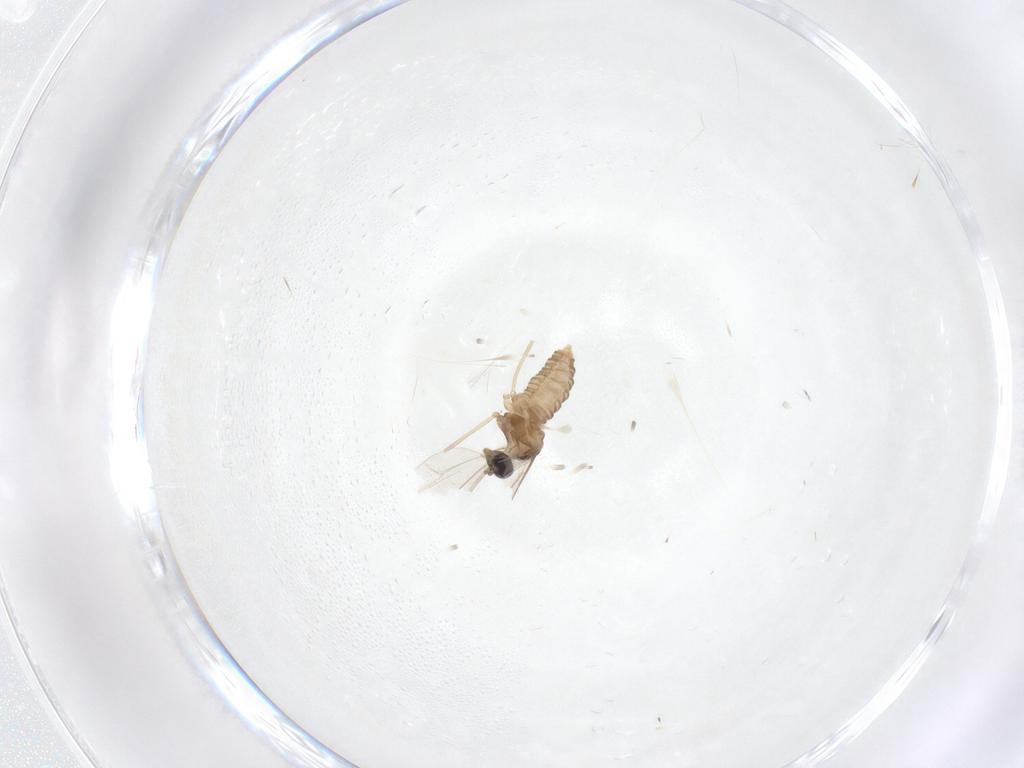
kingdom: Animalia
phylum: Arthropoda
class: Insecta
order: Diptera
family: Cecidomyiidae
